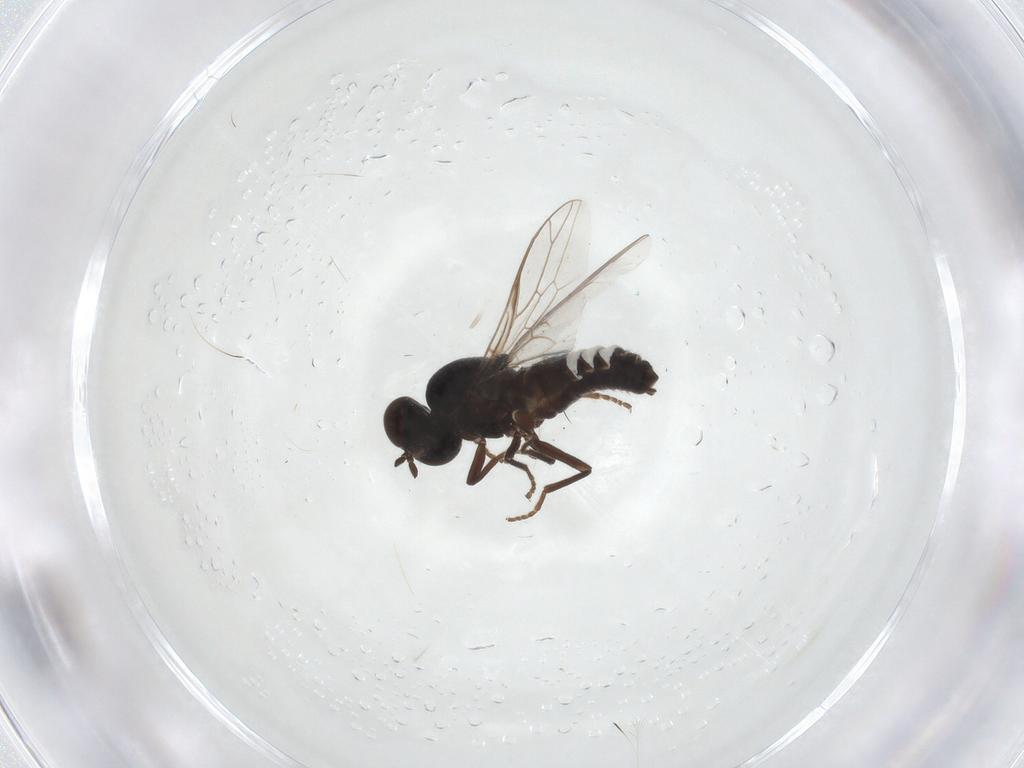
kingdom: Animalia
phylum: Arthropoda
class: Insecta
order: Diptera
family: Scenopinidae
